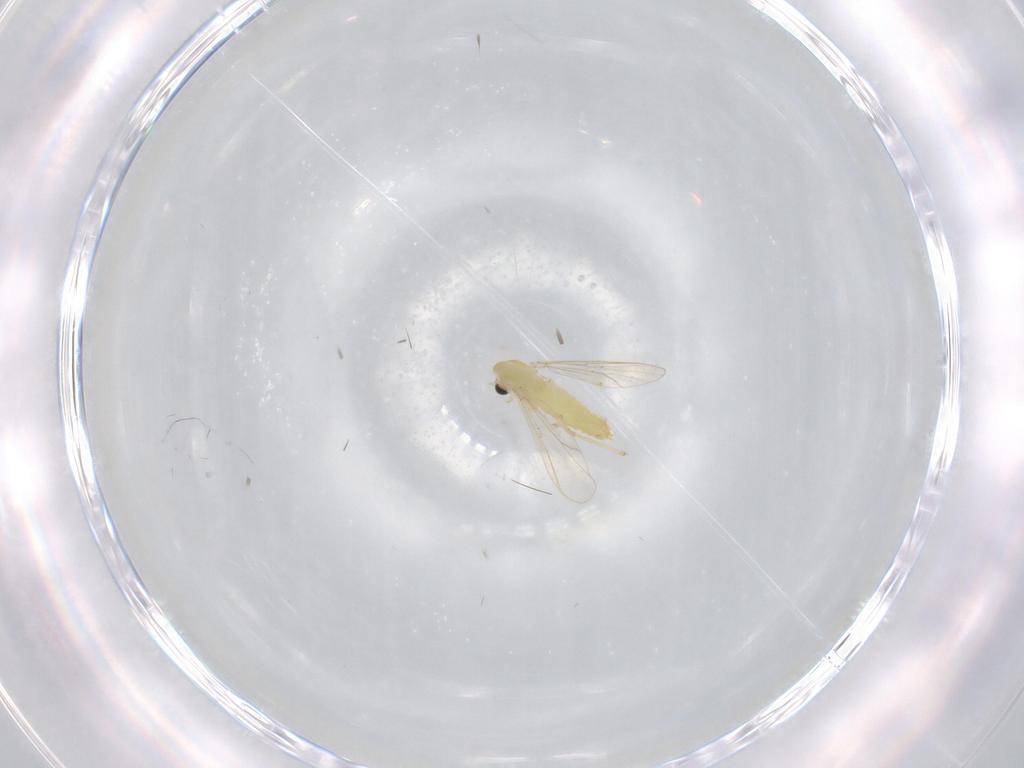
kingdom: Animalia
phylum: Arthropoda
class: Insecta
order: Diptera
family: Chironomidae
